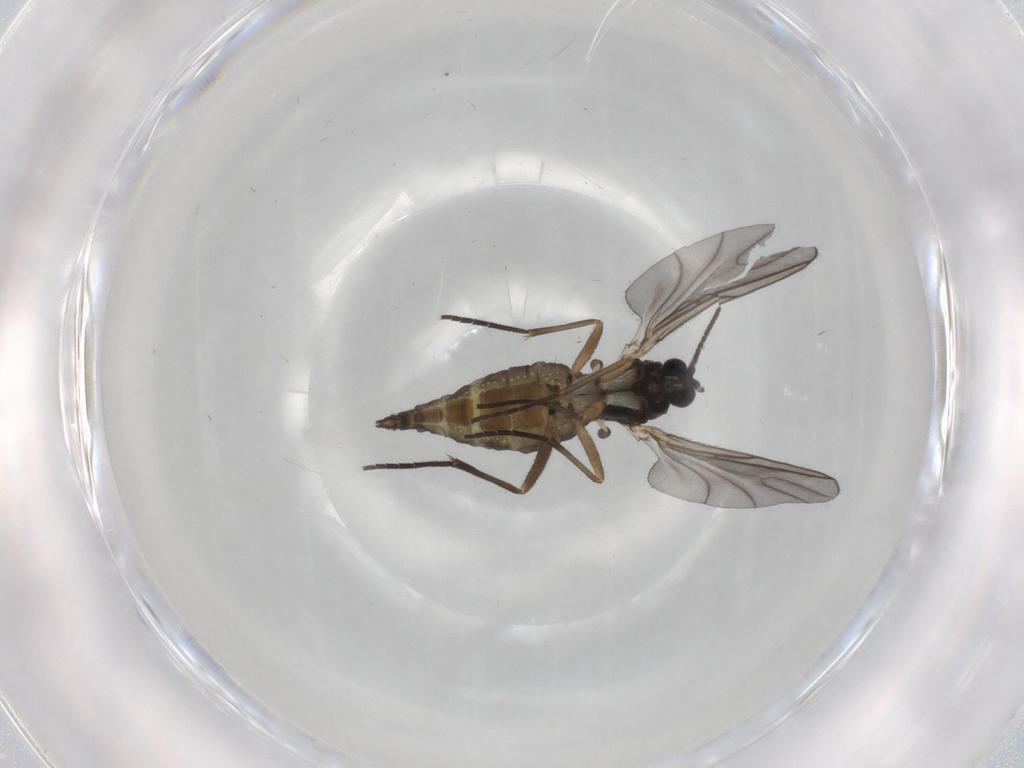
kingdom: Animalia
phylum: Arthropoda
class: Insecta
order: Diptera
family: Sciaridae
